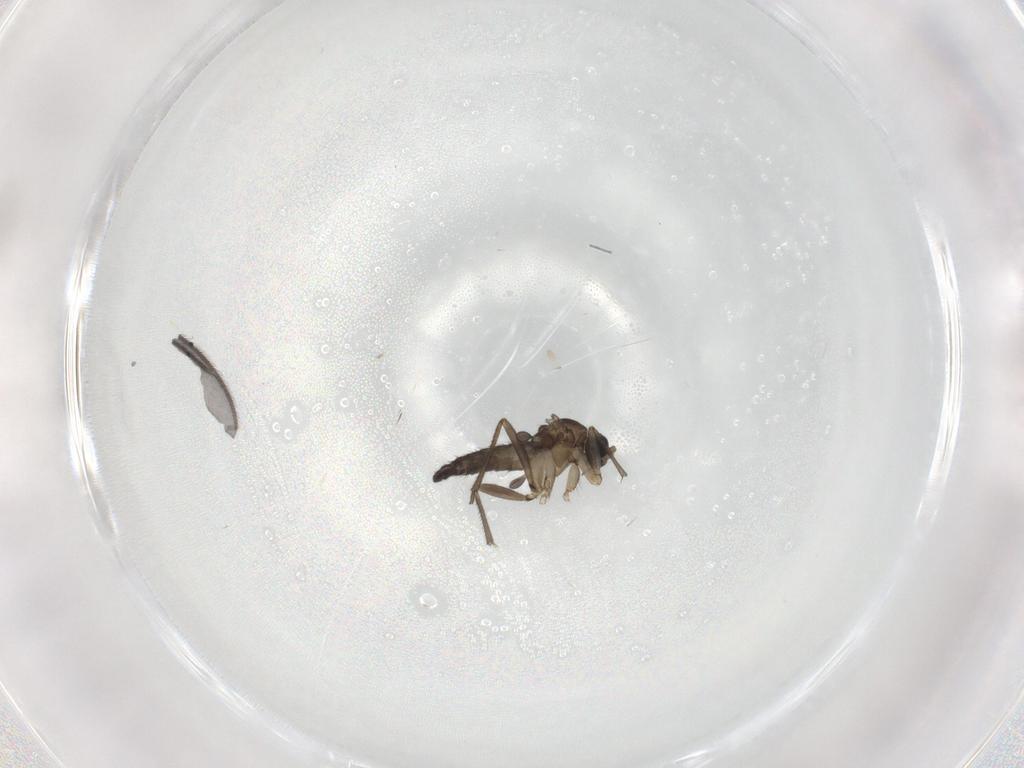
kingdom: Animalia
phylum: Arthropoda
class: Insecta
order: Diptera
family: Sciaridae
